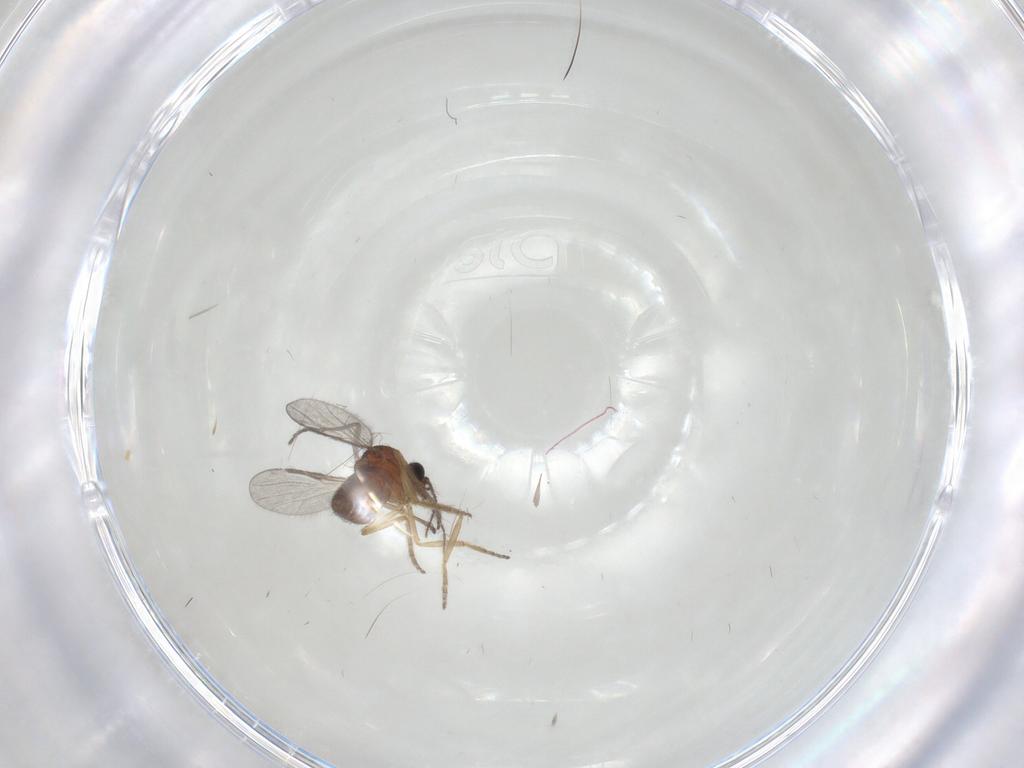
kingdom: Animalia
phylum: Arthropoda
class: Insecta
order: Diptera
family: Sciaridae
